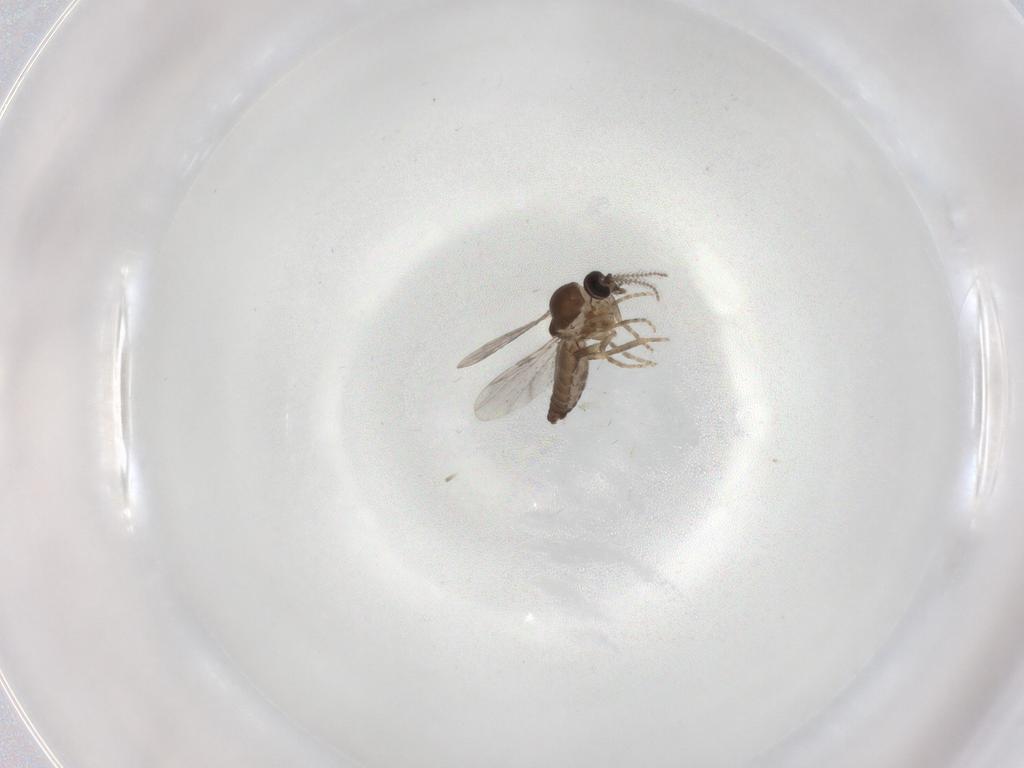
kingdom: Animalia
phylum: Arthropoda
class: Insecta
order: Diptera
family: Ceratopogonidae
